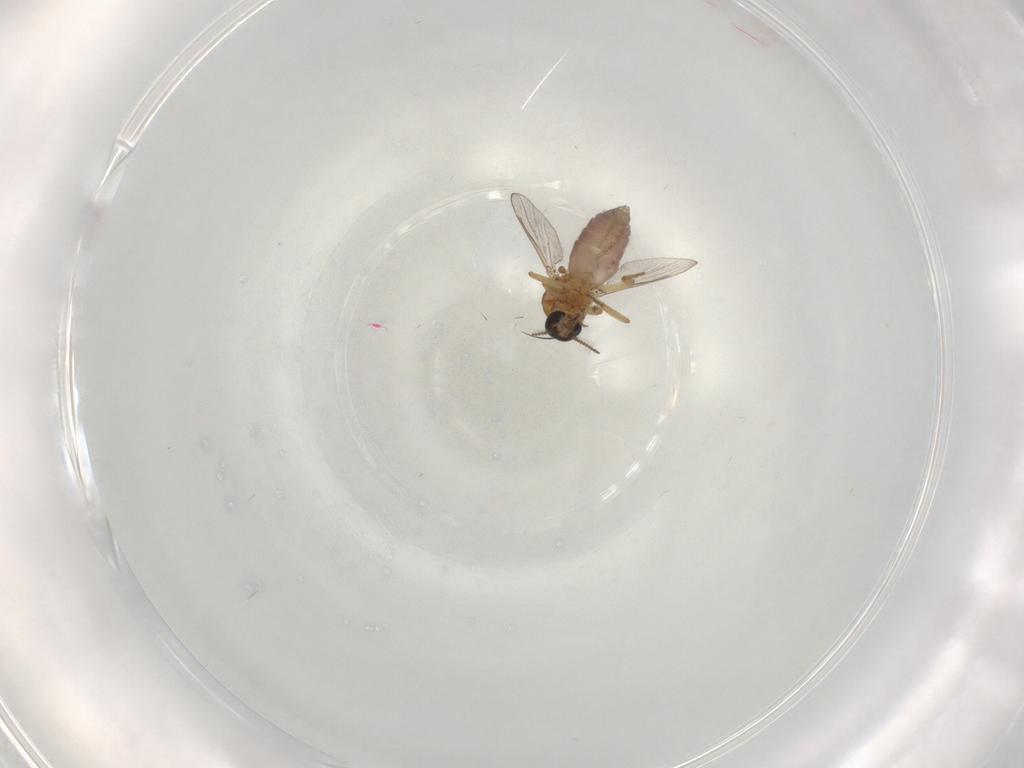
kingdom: Animalia
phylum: Arthropoda
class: Insecta
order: Diptera
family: Dolichopodidae
